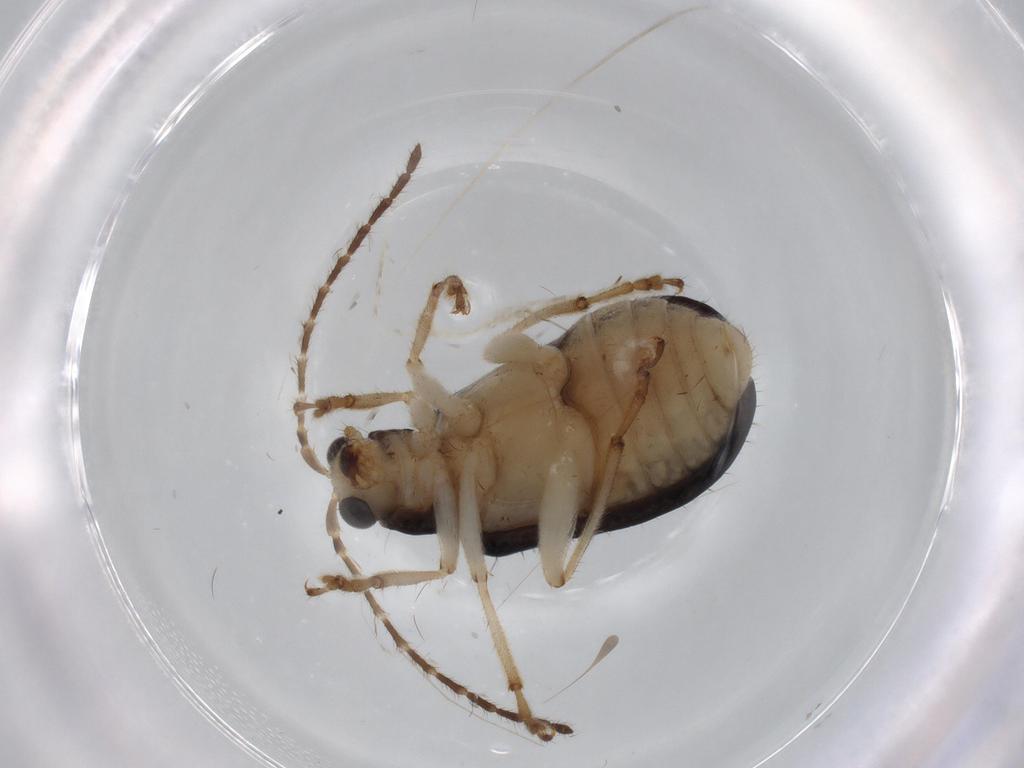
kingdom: Animalia
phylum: Arthropoda
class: Insecta
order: Coleoptera
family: Chrysomelidae
